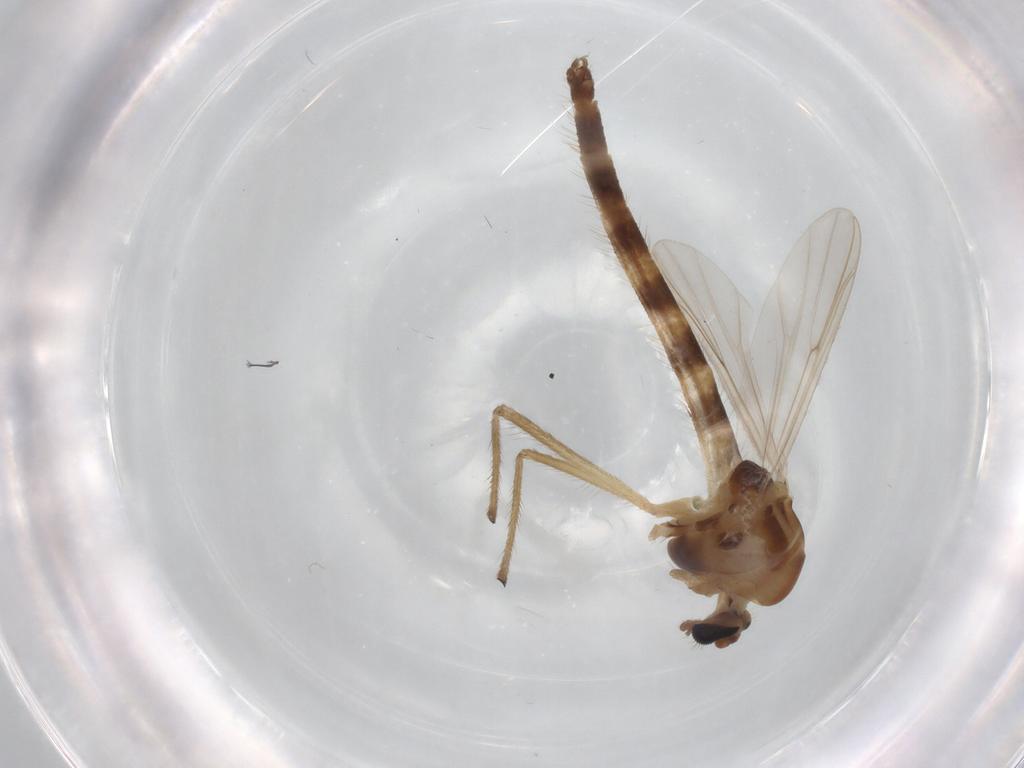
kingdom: Animalia
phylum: Arthropoda
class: Insecta
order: Diptera
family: Chironomidae
